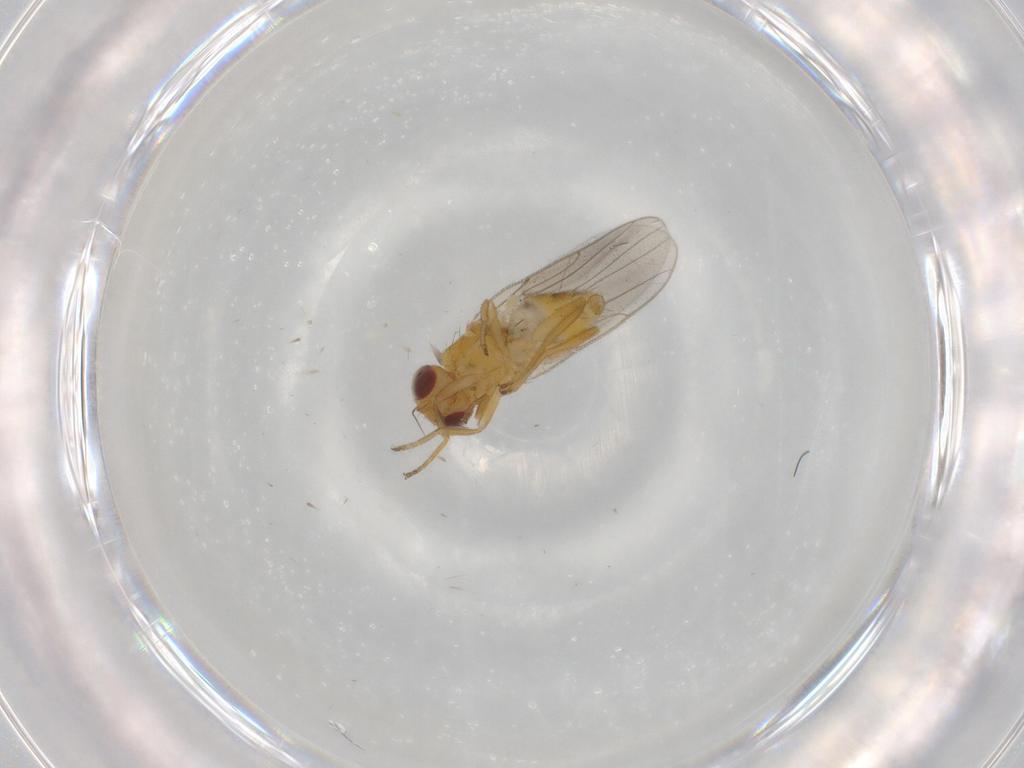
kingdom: Animalia
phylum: Arthropoda
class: Insecta
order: Diptera
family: Chloropidae
